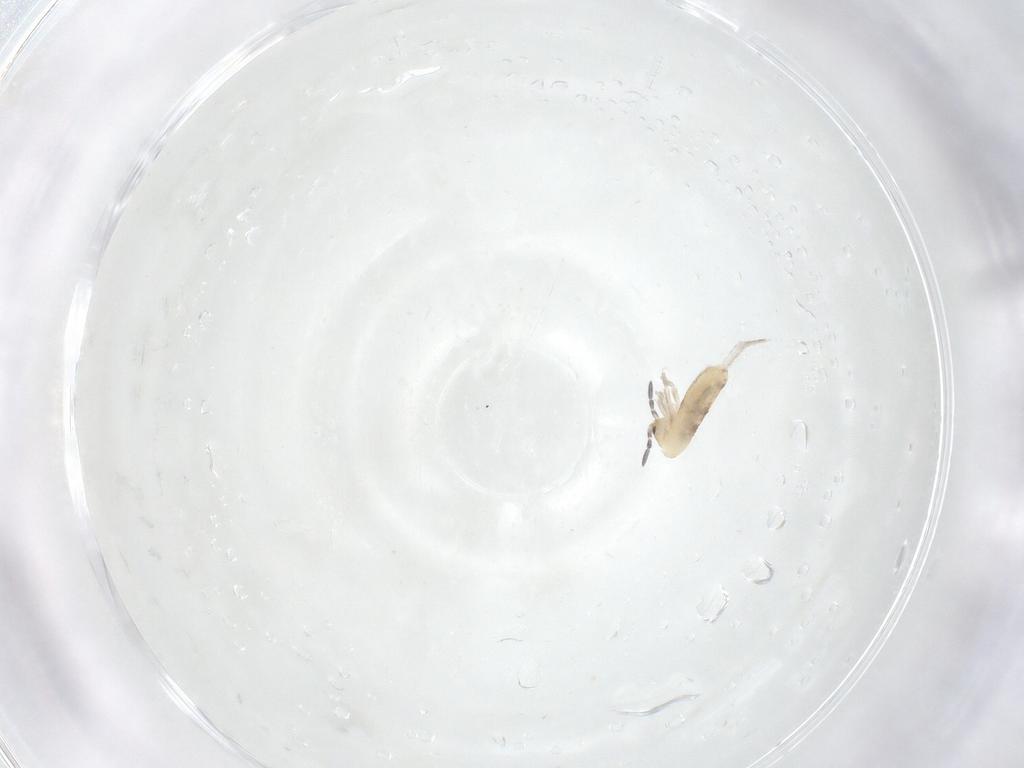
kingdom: Animalia
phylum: Arthropoda
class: Collembola
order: Entomobryomorpha
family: Entomobryidae
